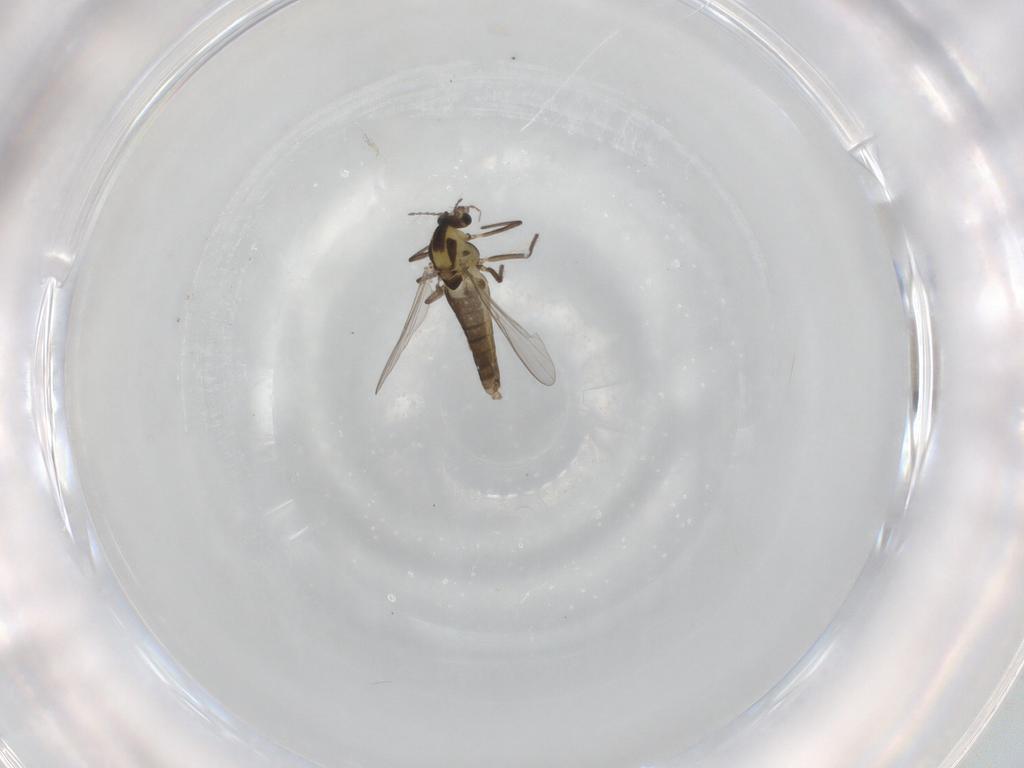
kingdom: Animalia
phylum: Arthropoda
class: Insecta
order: Diptera
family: Chironomidae
